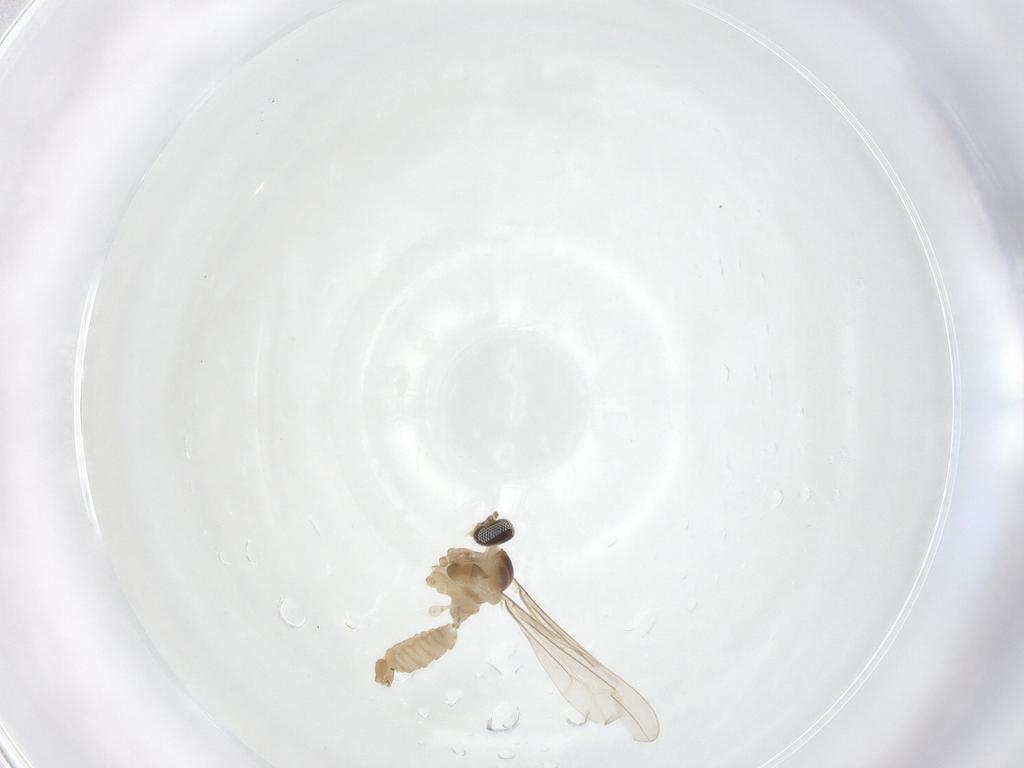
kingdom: Animalia
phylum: Arthropoda
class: Insecta
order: Diptera
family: Cecidomyiidae
